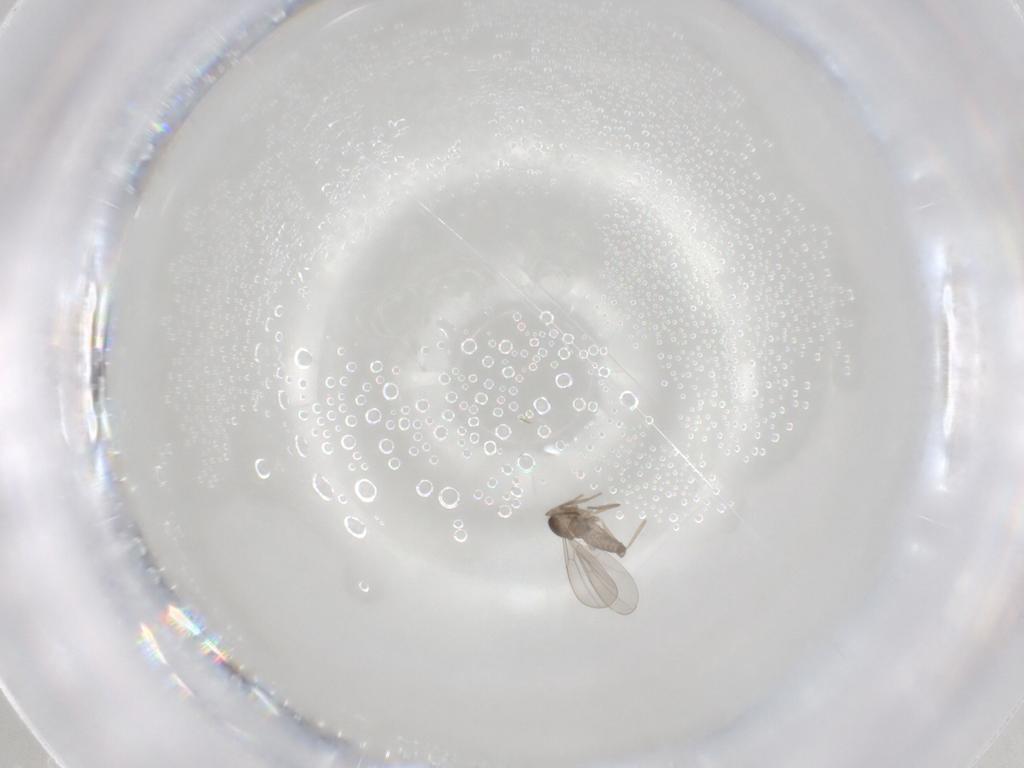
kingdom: Animalia
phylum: Arthropoda
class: Insecta
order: Diptera
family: Cecidomyiidae
